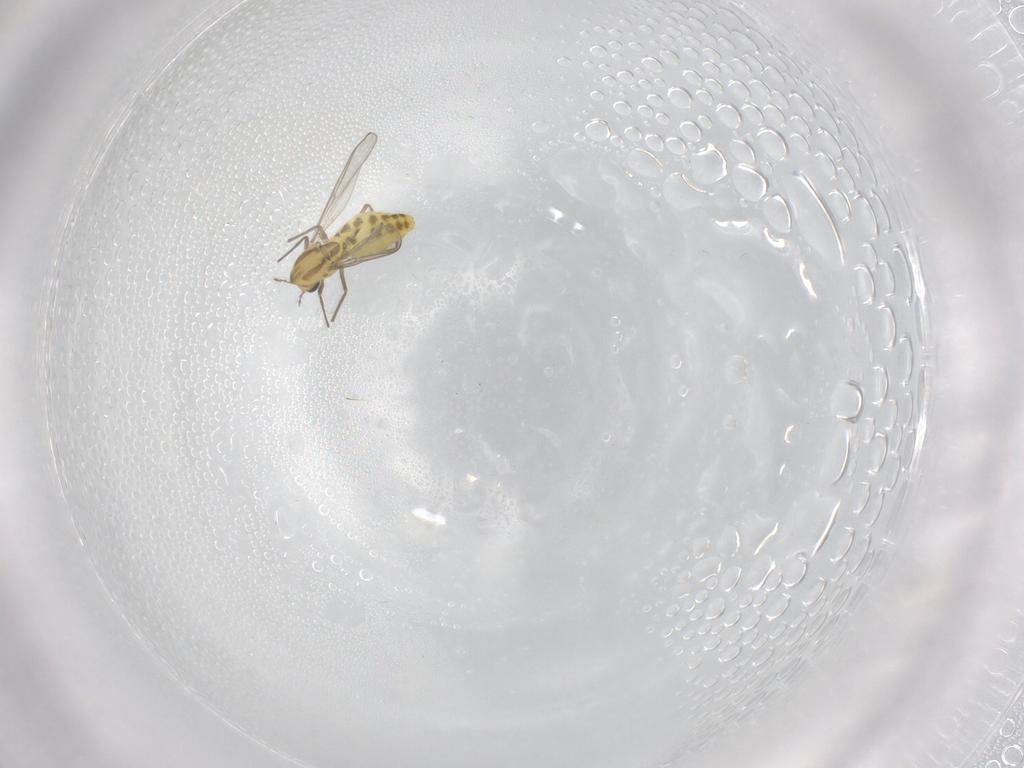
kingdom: Animalia
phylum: Arthropoda
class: Insecta
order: Diptera
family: Chironomidae
